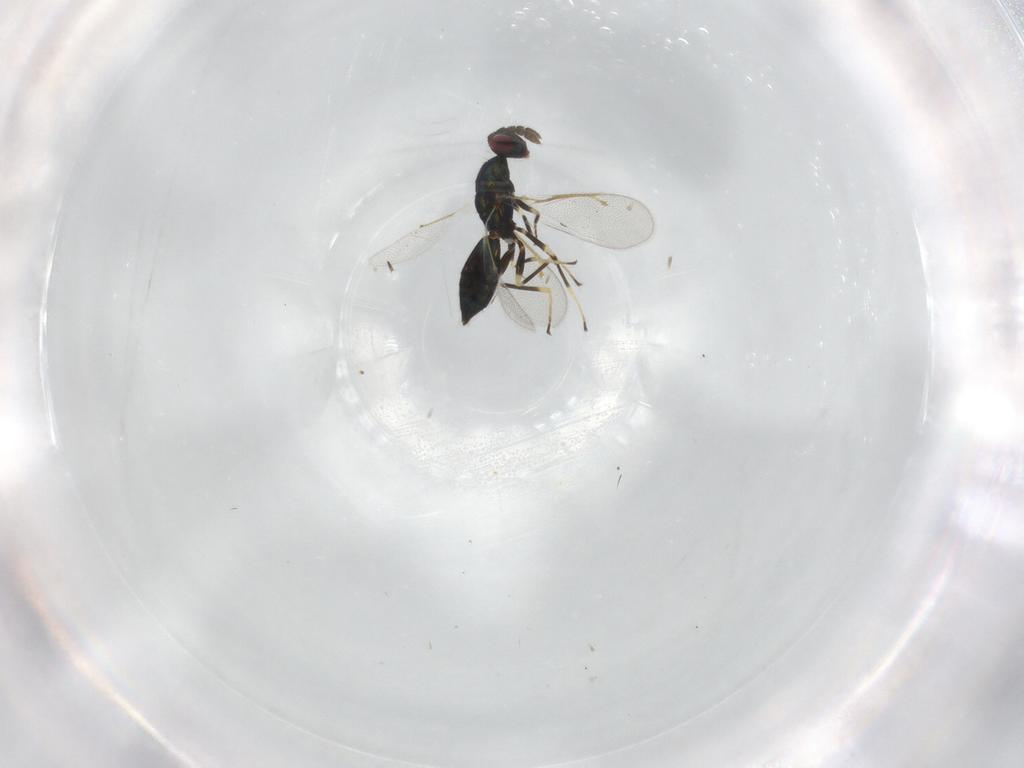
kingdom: Animalia
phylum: Arthropoda
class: Insecta
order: Hymenoptera
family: Eulophidae
